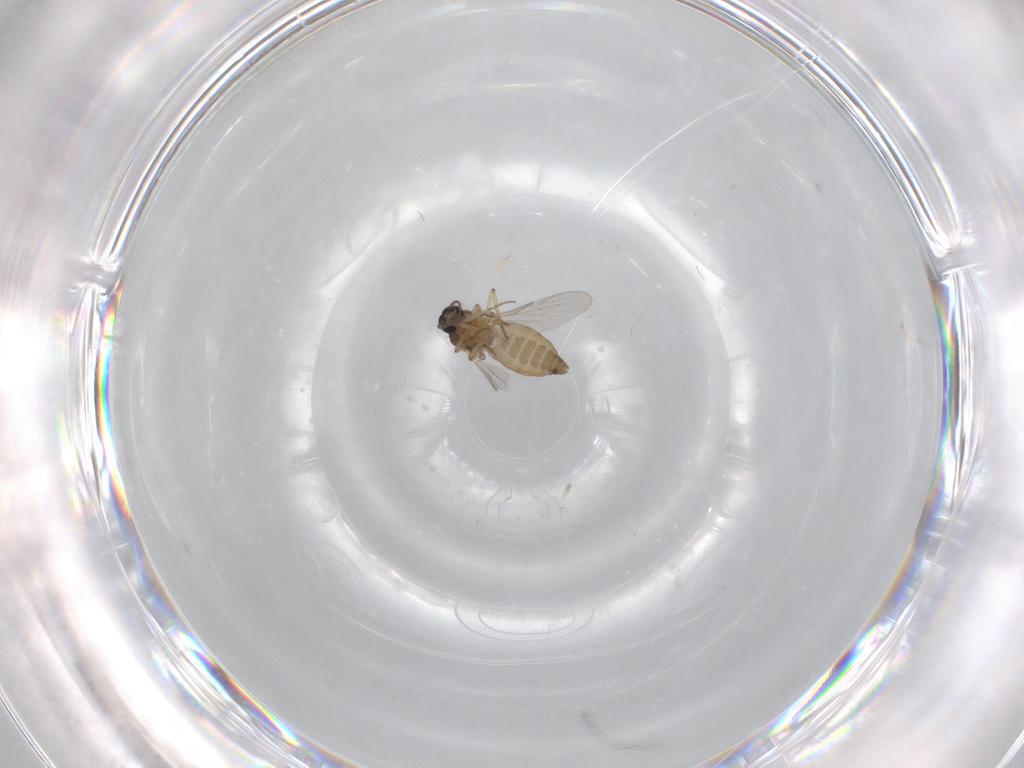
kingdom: Animalia
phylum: Arthropoda
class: Insecta
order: Diptera
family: Ceratopogonidae
